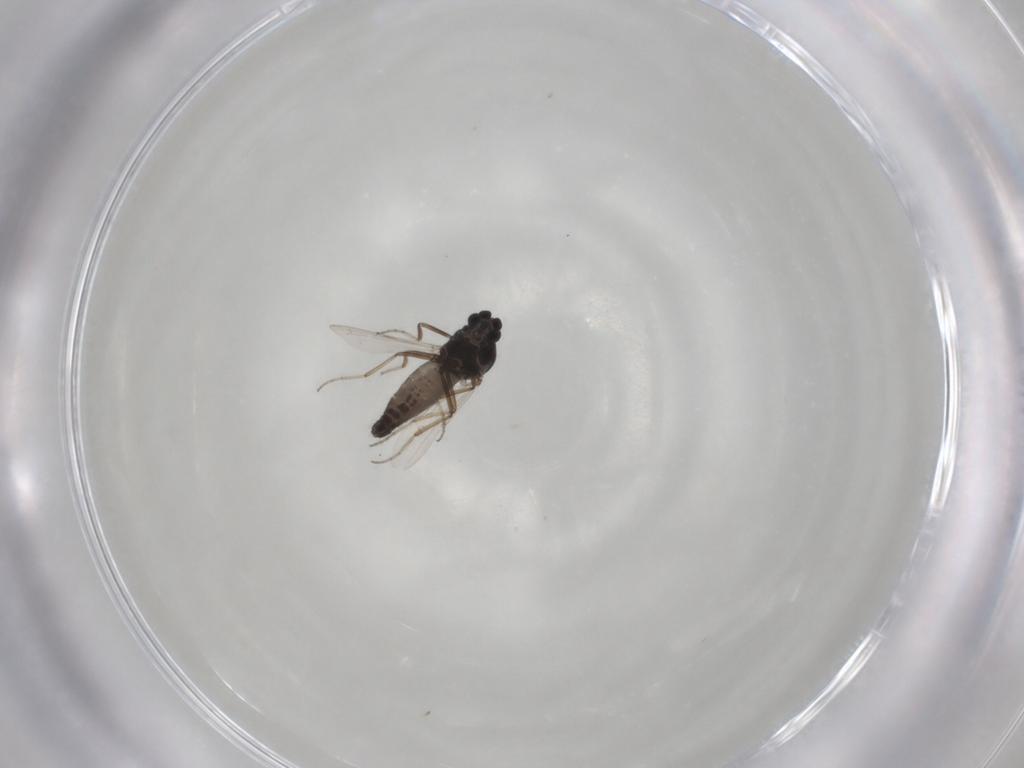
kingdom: Animalia
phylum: Arthropoda
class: Insecta
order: Diptera
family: Ceratopogonidae
